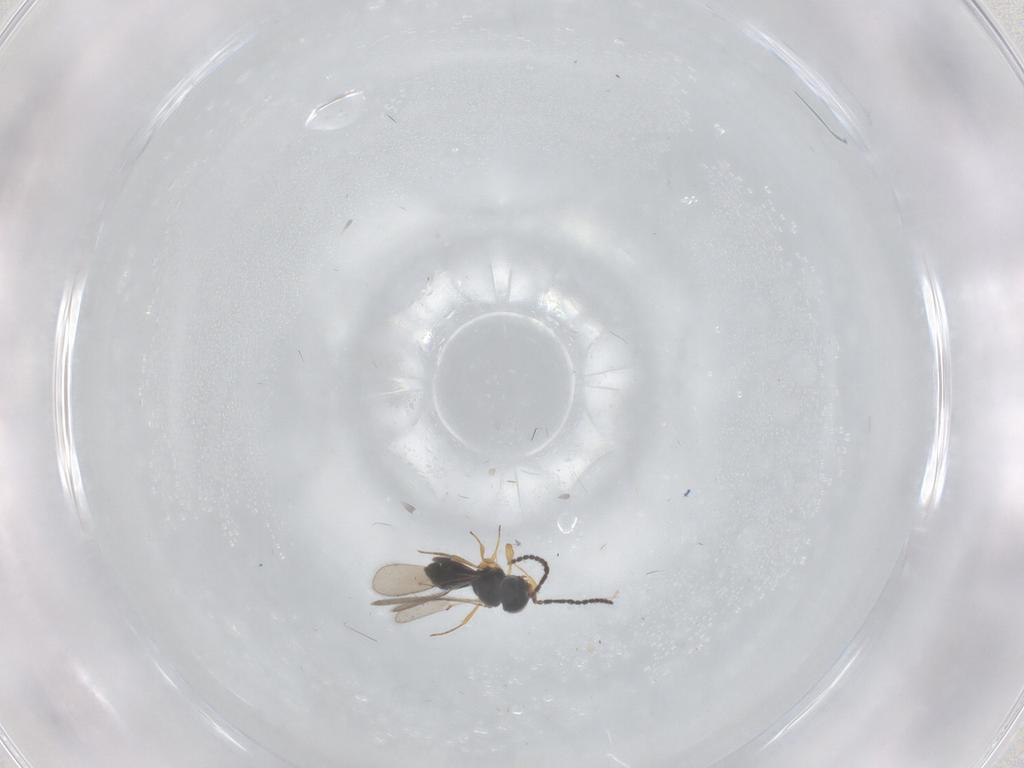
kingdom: Animalia
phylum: Arthropoda
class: Insecta
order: Hymenoptera
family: Scelionidae
